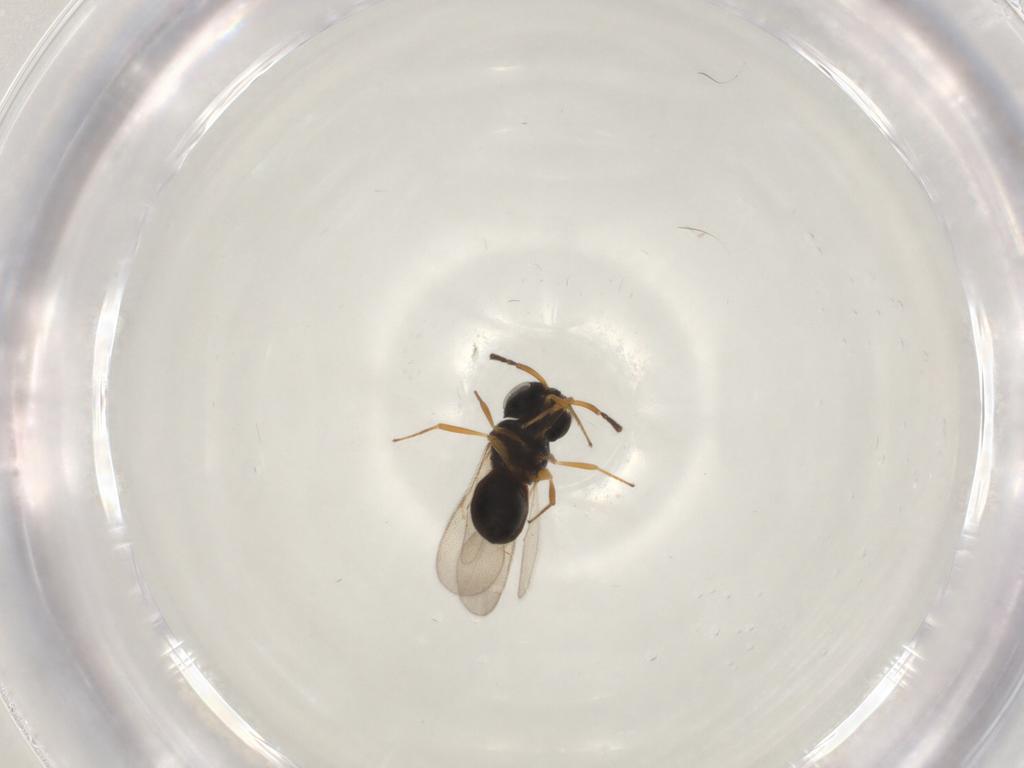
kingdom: Animalia
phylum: Arthropoda
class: Insecta
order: Hymenoptera
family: Scelionidae
